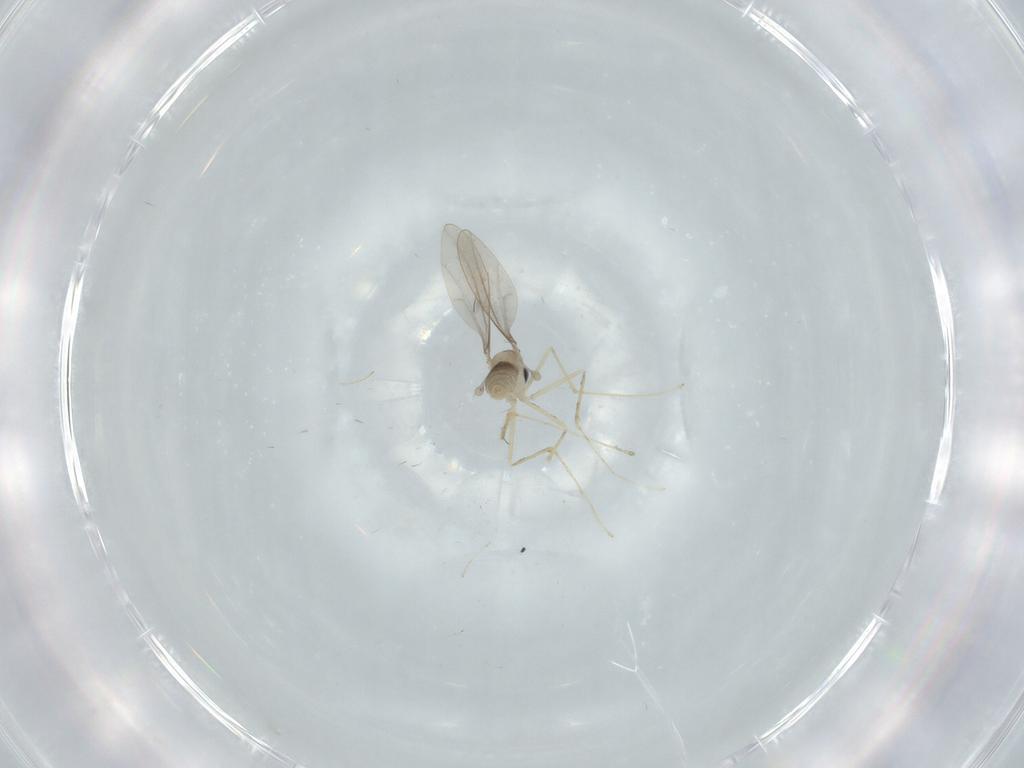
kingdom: Animalia
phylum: Arthropoda
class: Insecta
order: Diptera
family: Cecidomyiidae
